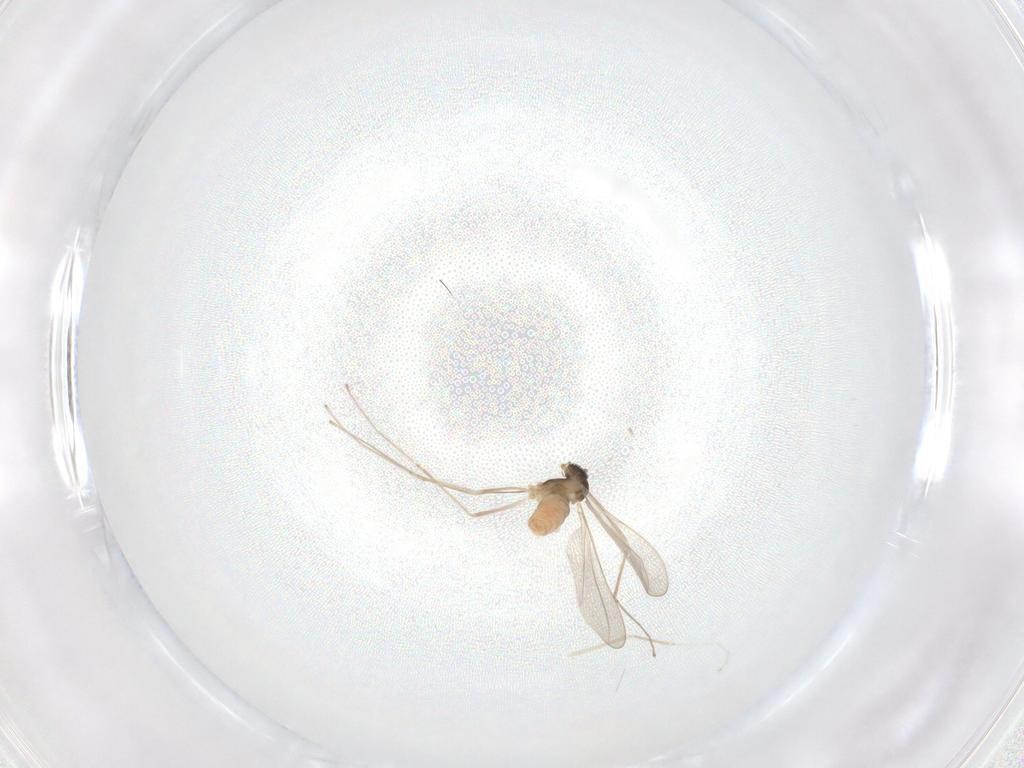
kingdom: Animalia
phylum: Arthropoda
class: Insecta
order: Diptera
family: Cecidomyiidae
